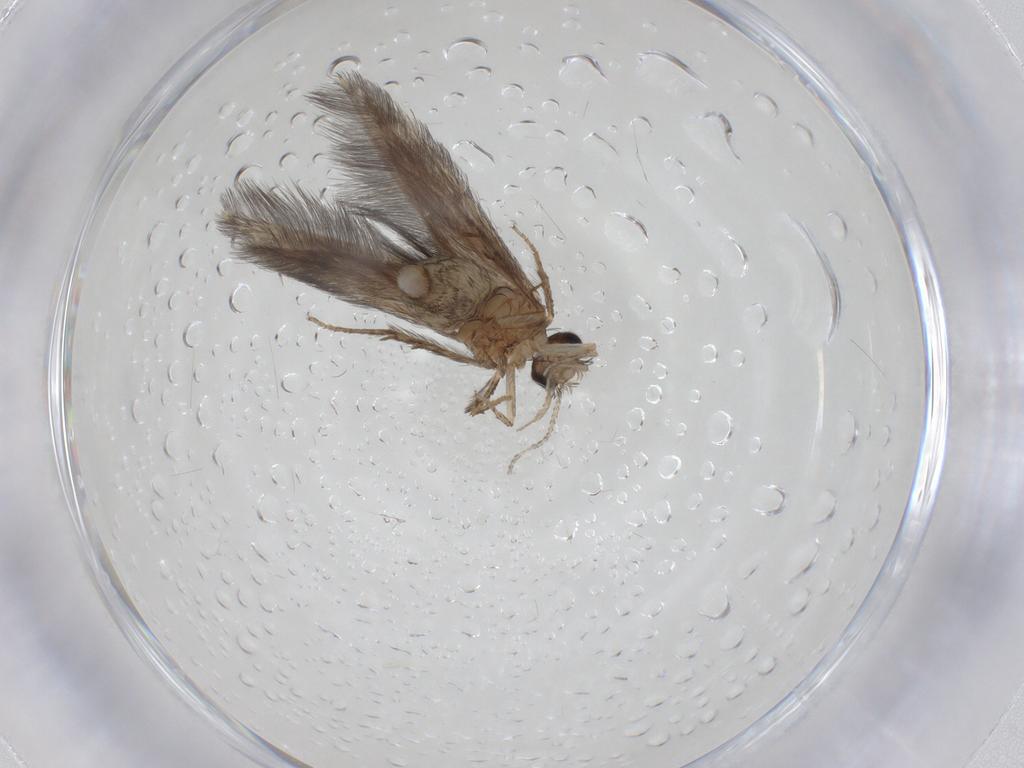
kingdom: Animalia
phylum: Arthropoda
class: Insecta
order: Trichoptera
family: Hydroptilidae
